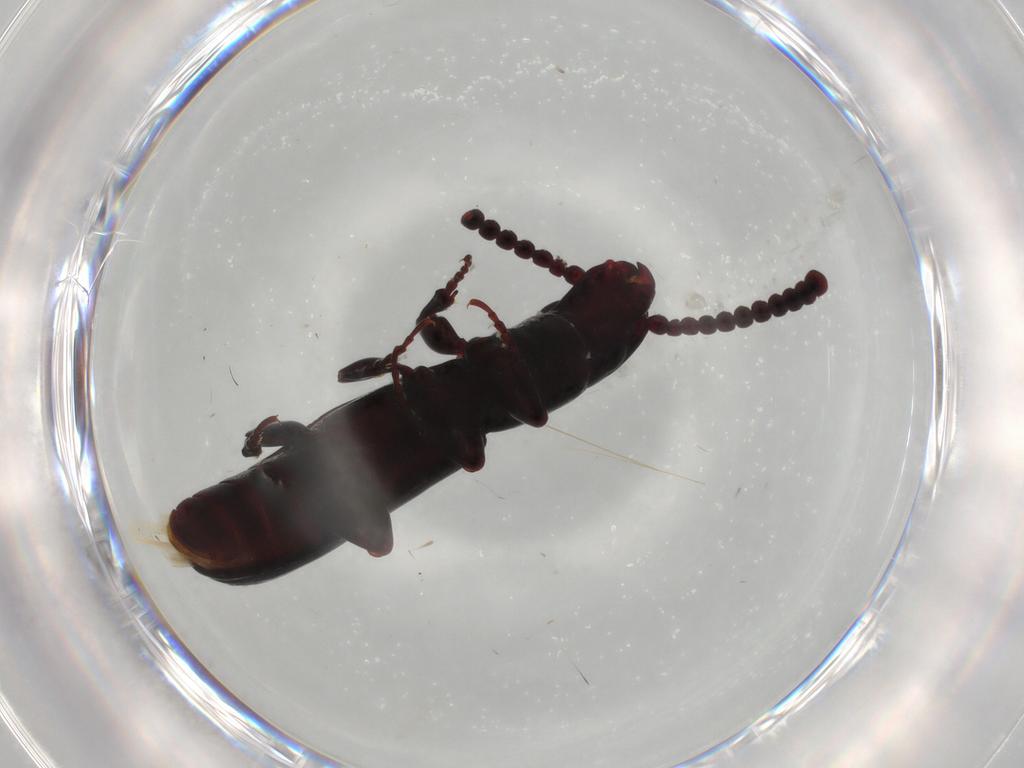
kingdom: Animalia
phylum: Arthropoda
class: Insecta
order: Coleoptera
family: Passandridae
